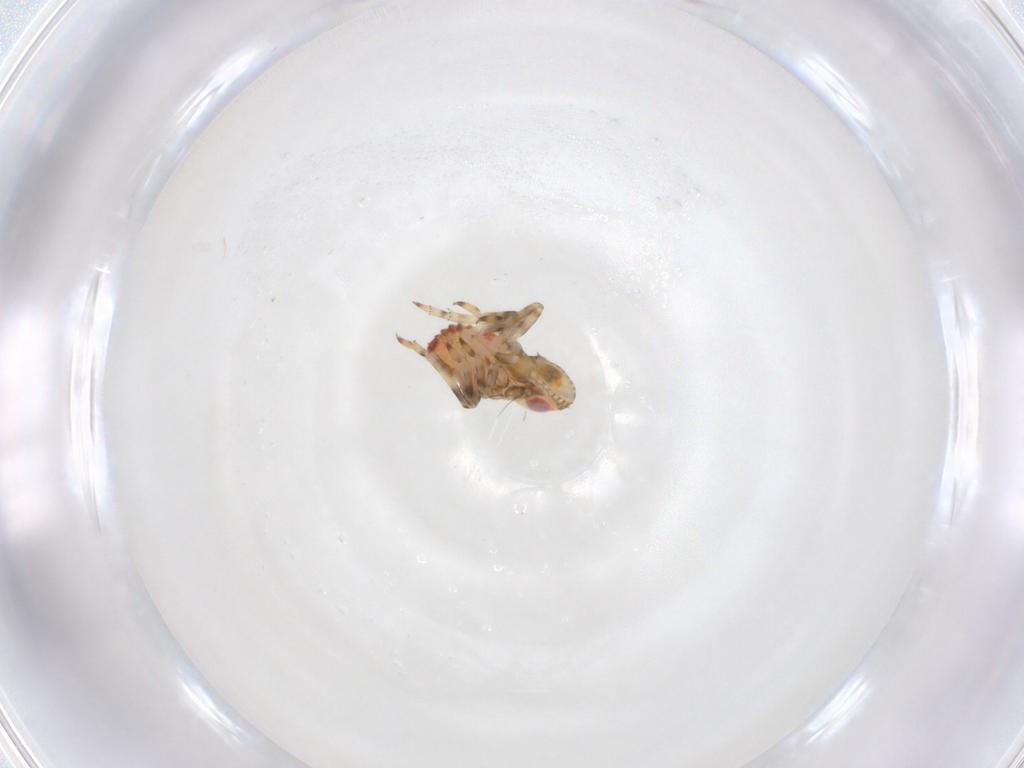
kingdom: Animalia
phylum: Arthropoda
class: Insecta
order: Hemiptera
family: Tropiduchidae
